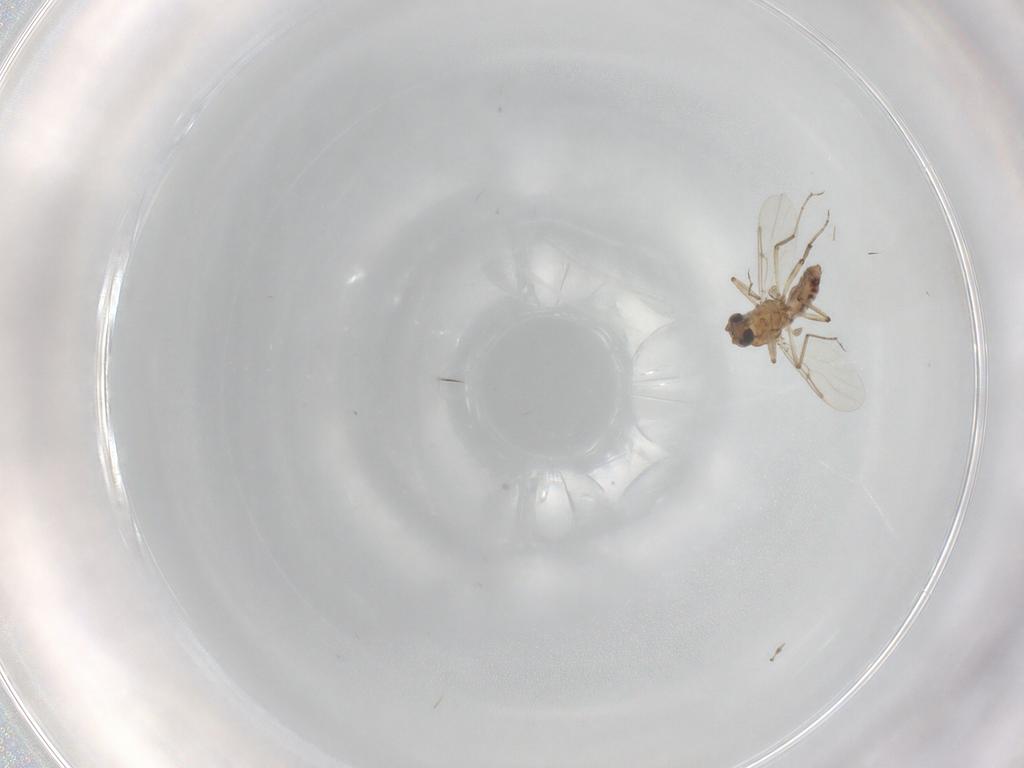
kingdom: Animalia
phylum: Arthropoda
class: Insecta
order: Diptera
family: Ceratopogonidae
